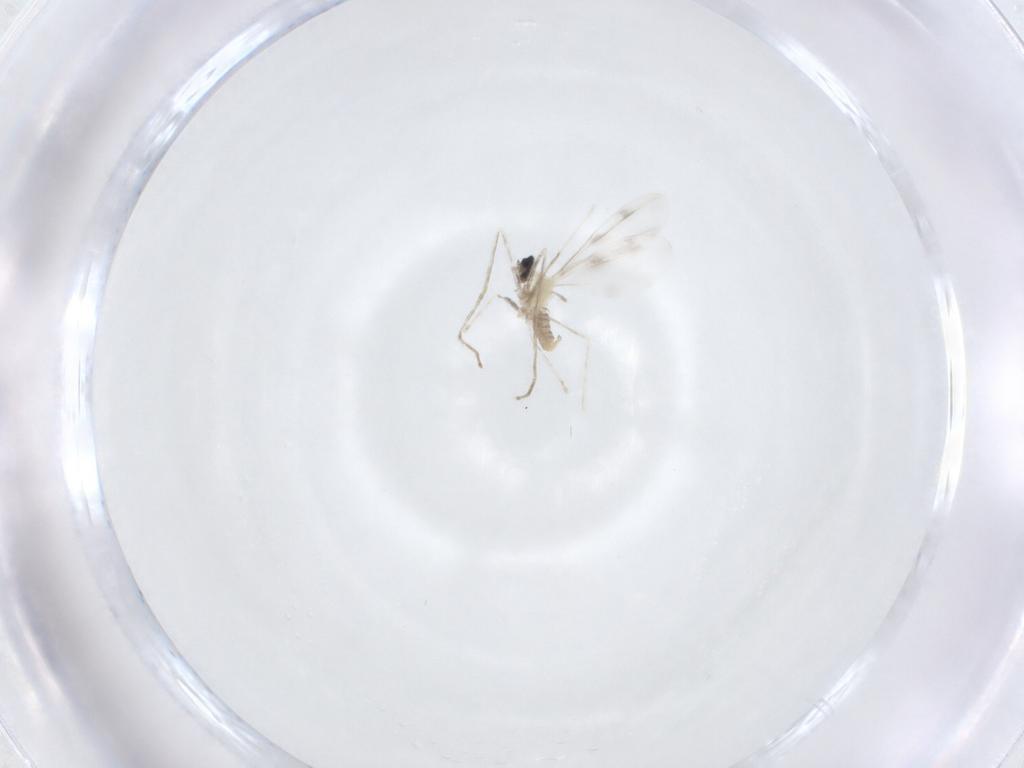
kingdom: Animalia
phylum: Arthropoda
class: Insecta
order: Diptera
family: Cecidomyiidae
